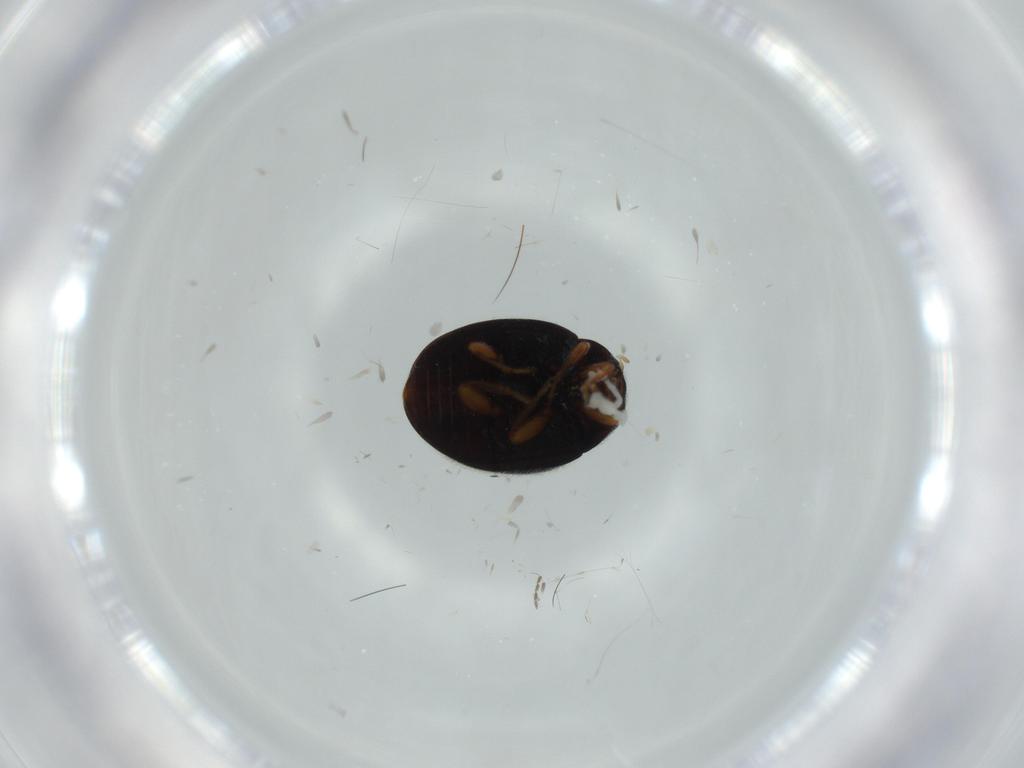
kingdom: Animalia
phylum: Arthropoda
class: Insecta
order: Coleoptera
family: Coccinellidae
